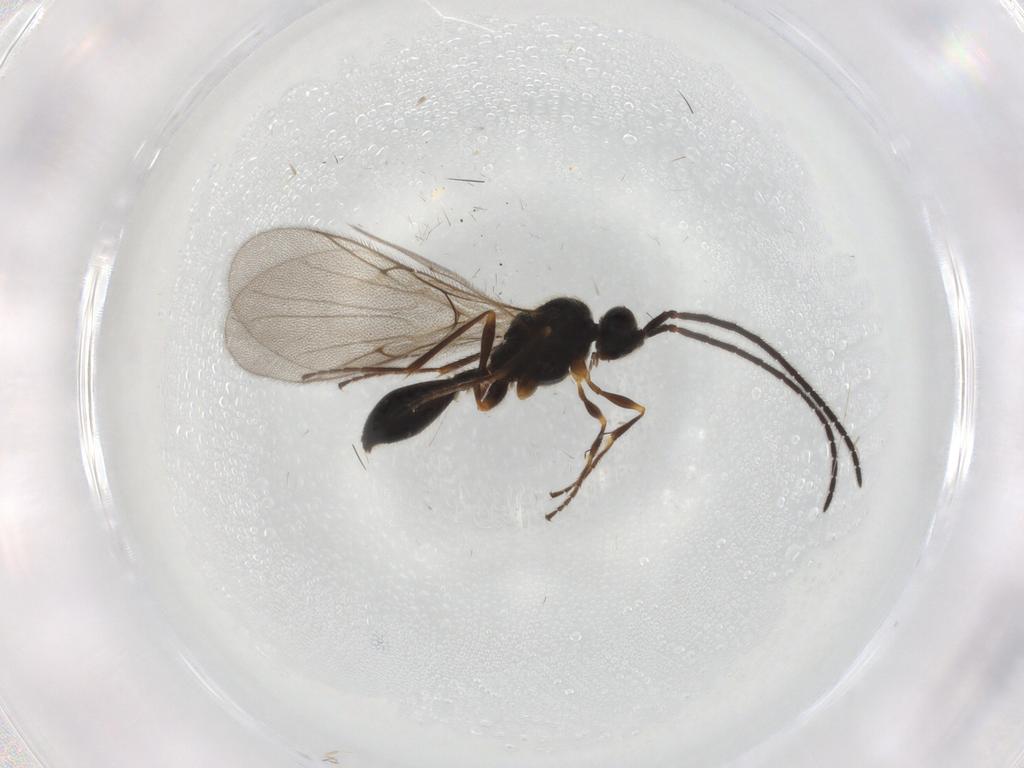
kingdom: Animalia
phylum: Arthropoda
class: Insecta
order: Hymenoptera
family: Diapriidae
